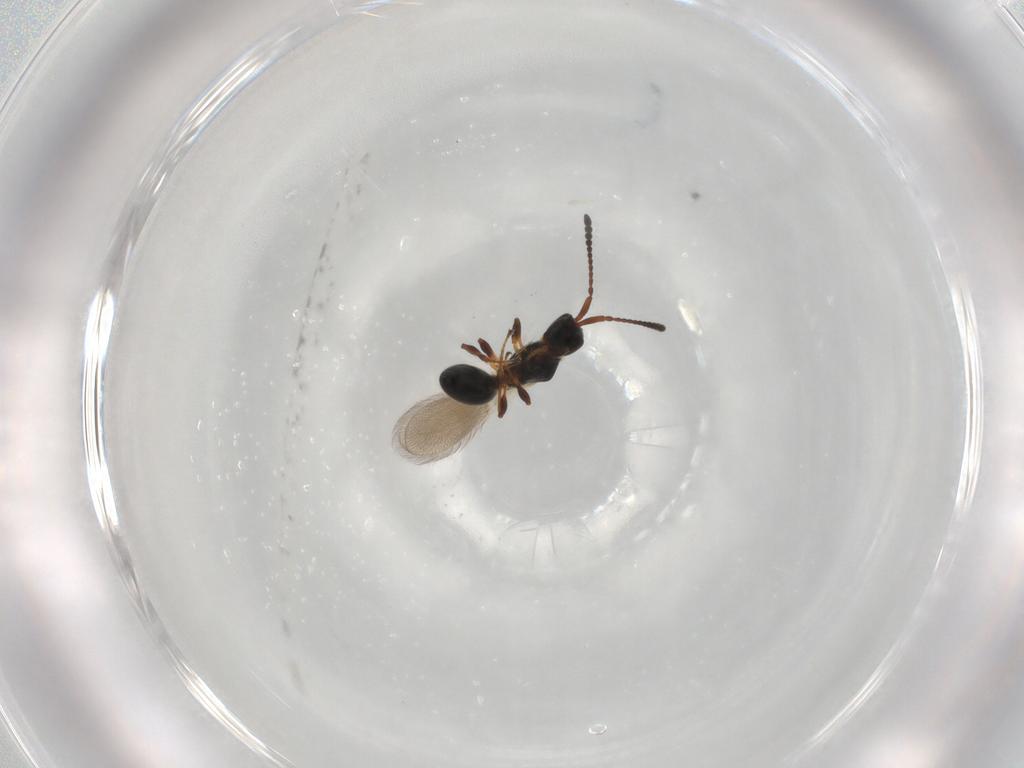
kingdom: Animalia
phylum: Arthropoda
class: Insecta
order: Hymenoptera
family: Diapriidae
